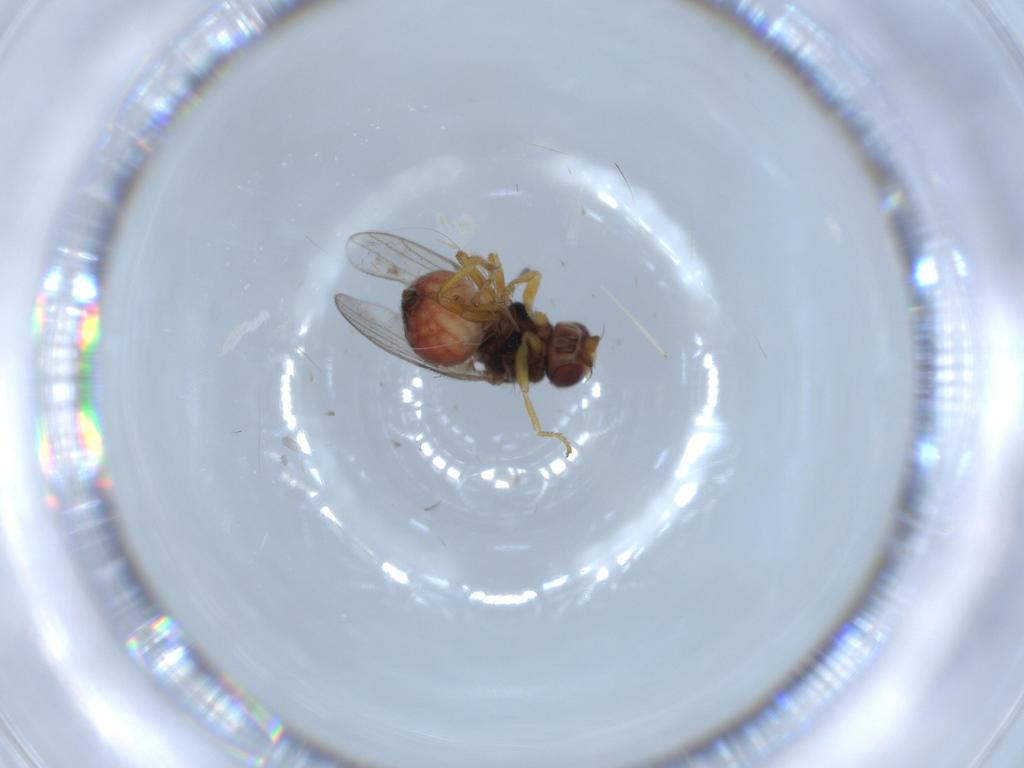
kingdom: Animalia
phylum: Arthropoda
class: Insecta
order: Diptera
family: Chloropidae
